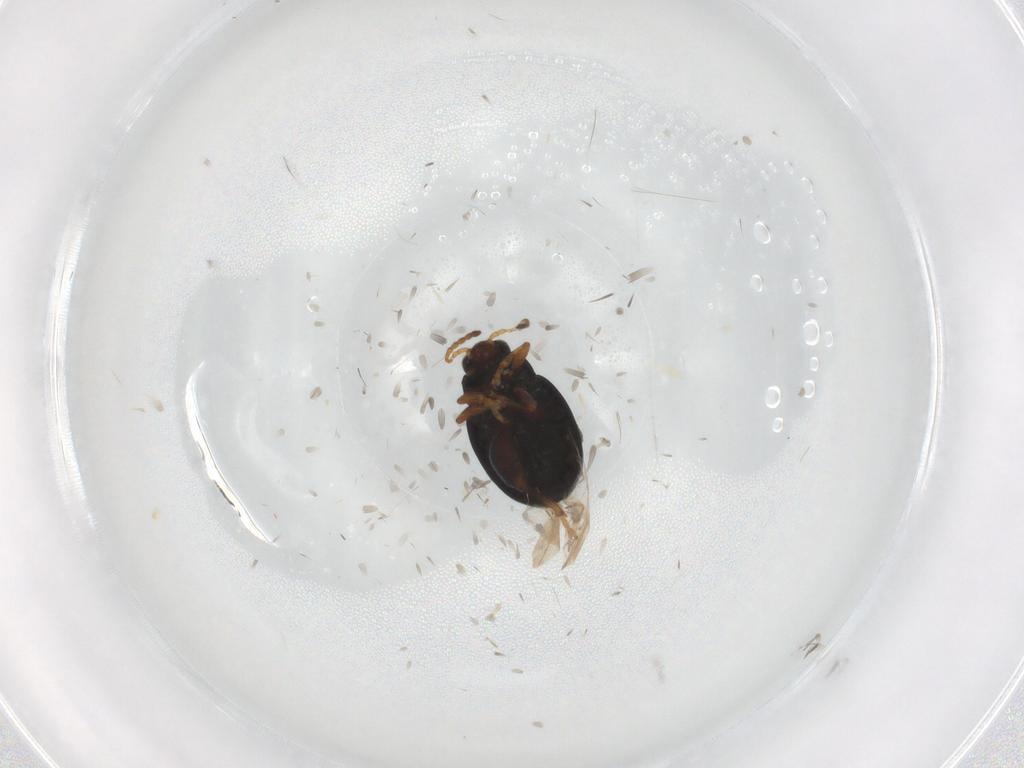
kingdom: Animalia
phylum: Arthropoda
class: Insecta
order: Coleoptera
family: Chrysomelidae
